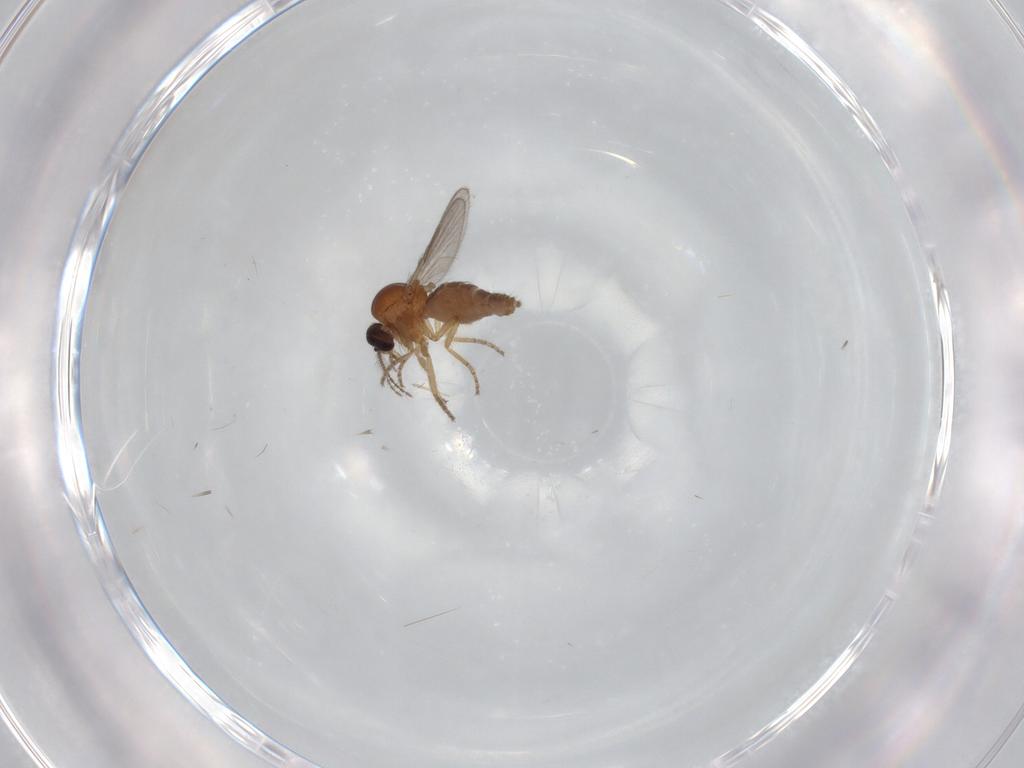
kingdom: Animalia
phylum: Arthropoda
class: Insecta
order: Diptera
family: Ceratopogonidae
